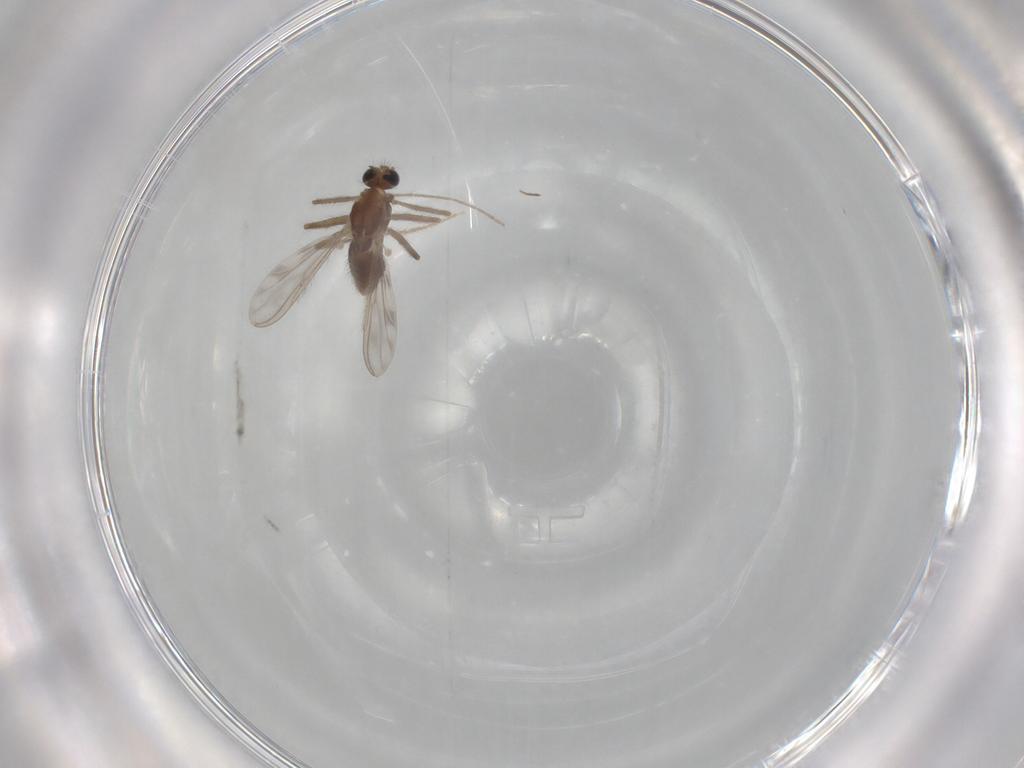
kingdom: Animalia
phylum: Arthropoda
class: Insecta
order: Diptera
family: Chironomidae
